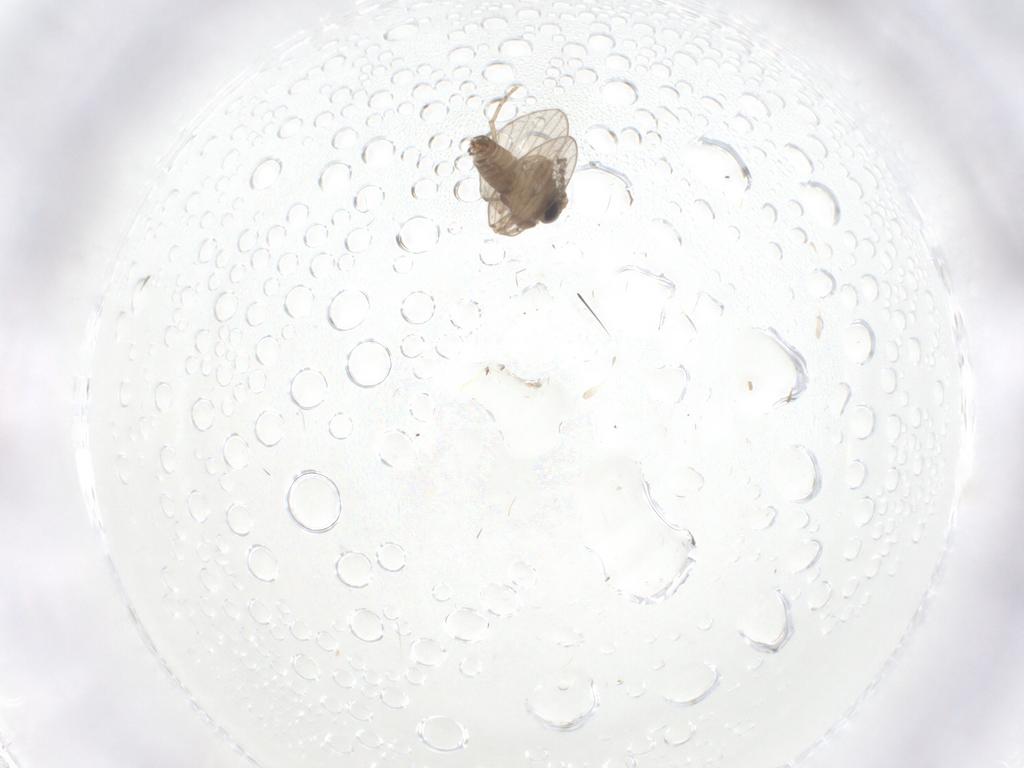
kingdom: Animalia
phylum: Arthropoda
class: Insecta
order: Diptera
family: Psychodidae
